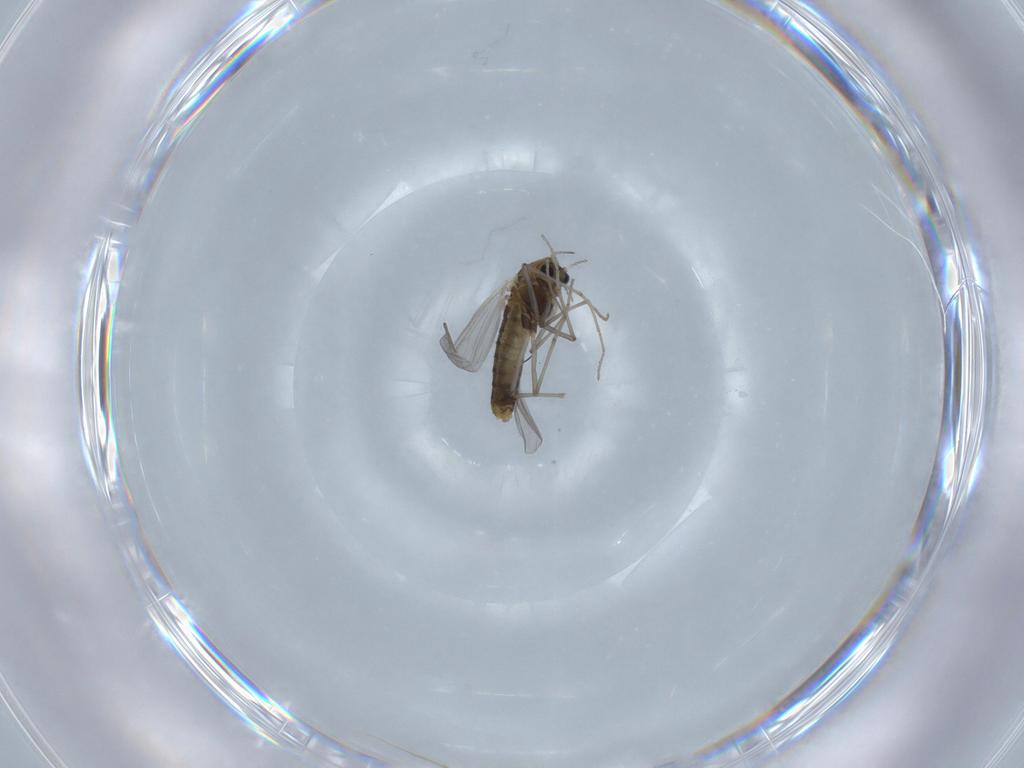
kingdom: Animalia
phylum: Arthropoda
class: Insecta
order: Diptera
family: Chironomidae
